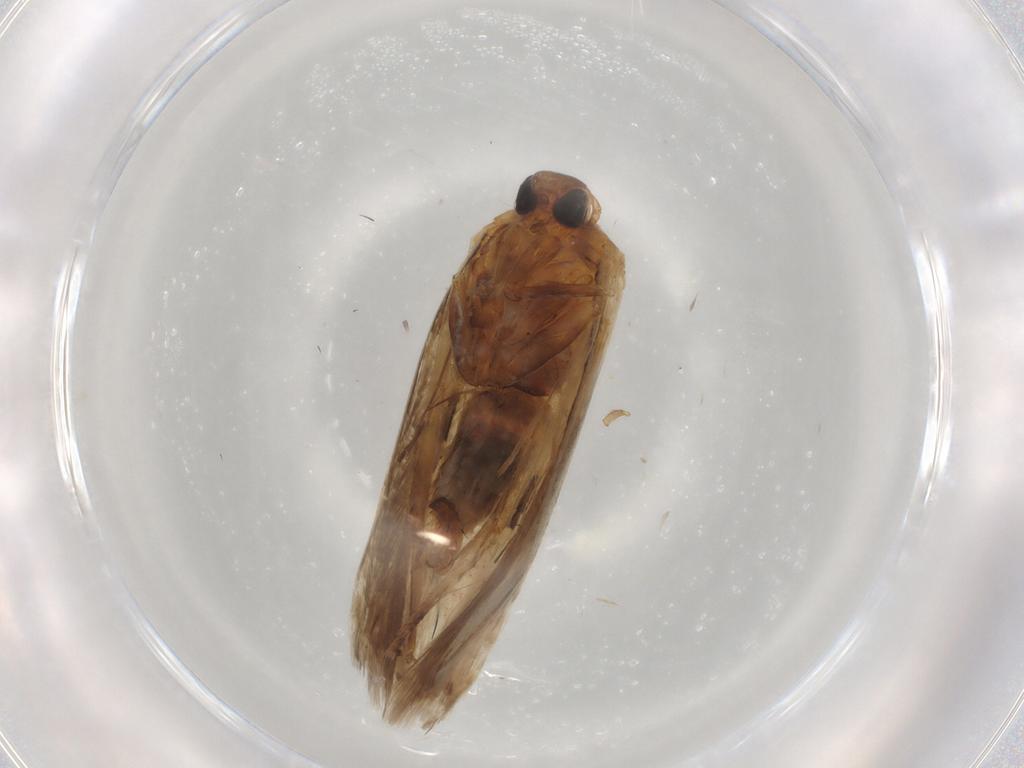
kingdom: Animalia
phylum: Arthropoda
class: Insecta
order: Lepidoptera
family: Nepticulidae
